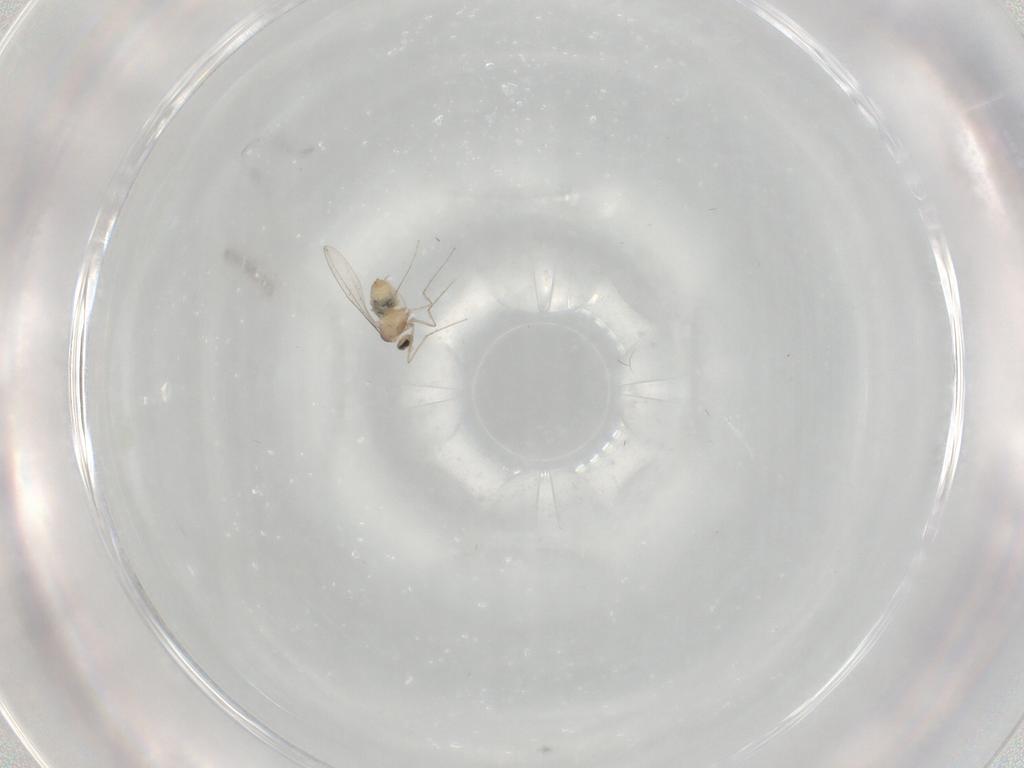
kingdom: Animalia
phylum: Arthropoda
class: Insecta
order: Diptera
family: Cecidomyiidae
